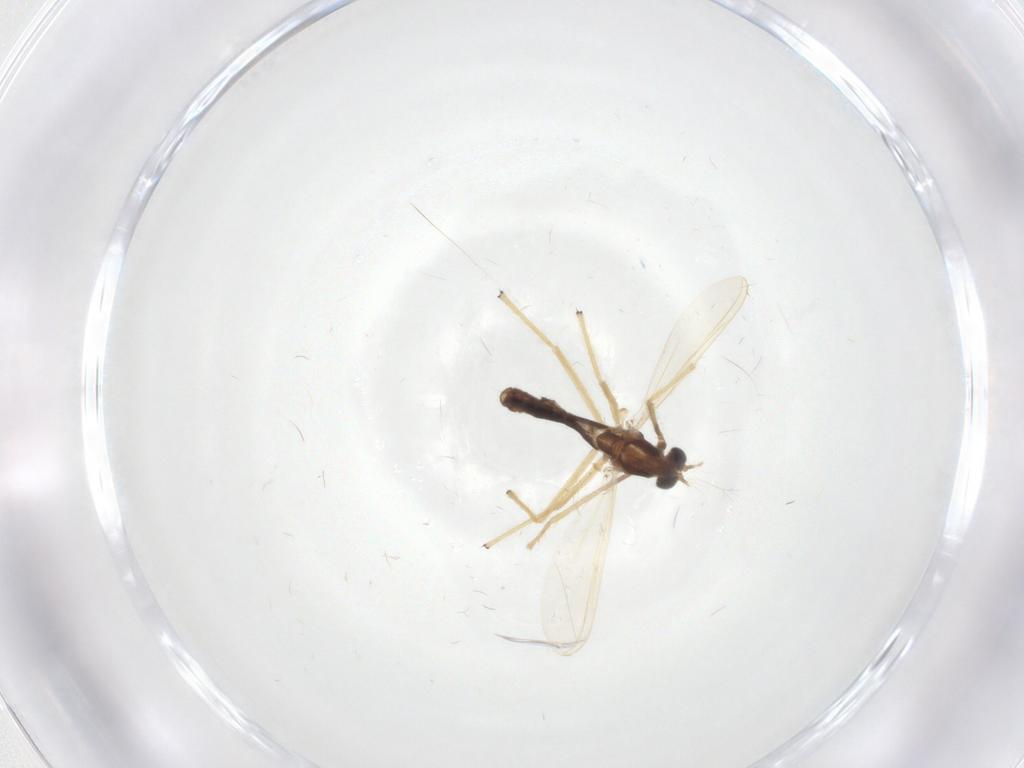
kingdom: Animalia
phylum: Arthropoda
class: Insecta
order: Diptera
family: Chironomidae
